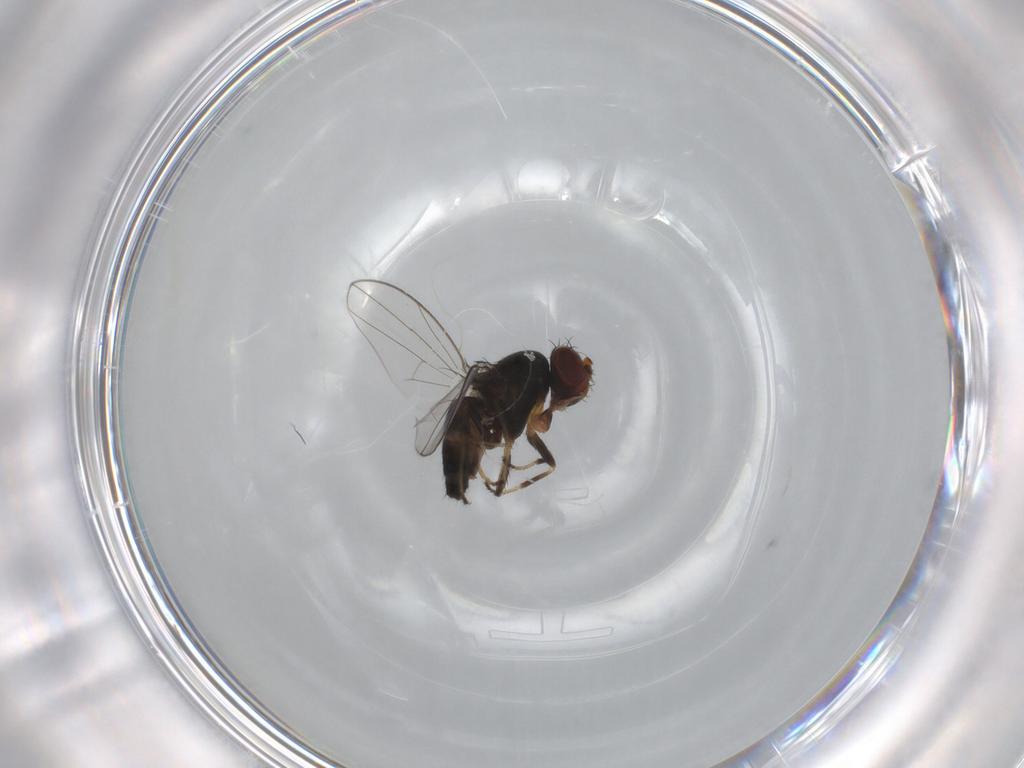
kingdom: Animalia
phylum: Arthropoda
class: Insecta
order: Diptera
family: Ephydridae
